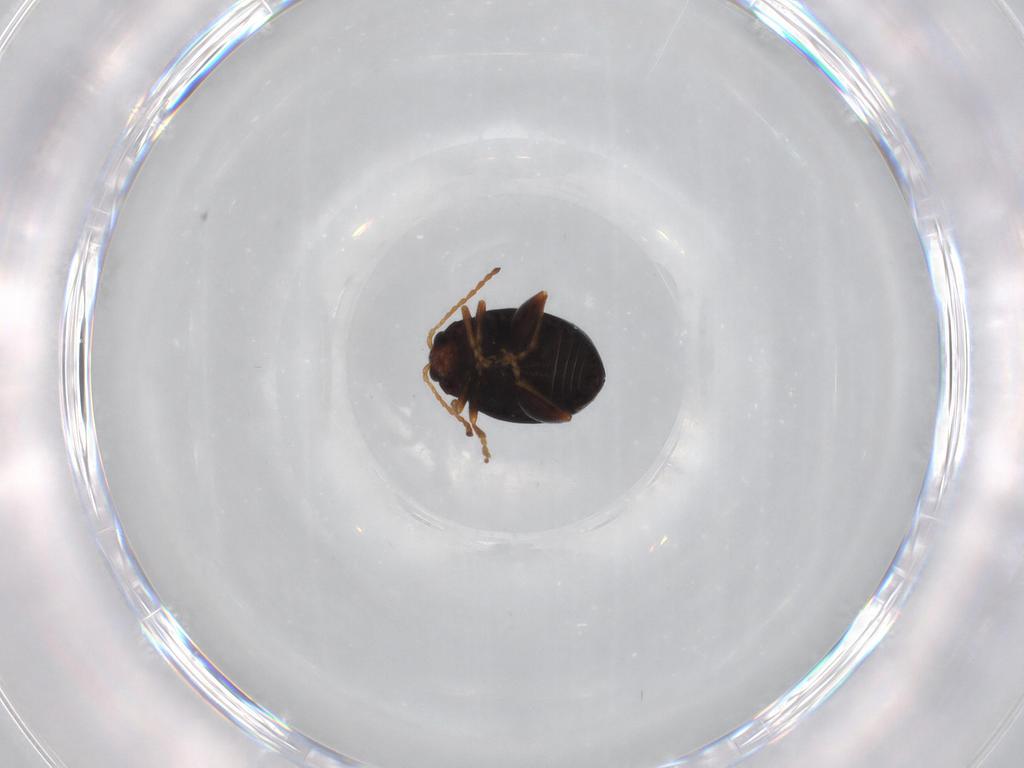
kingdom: Animalia
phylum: Arthropoda
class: Insecta
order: Coleoptera
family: Chrysomelidae
